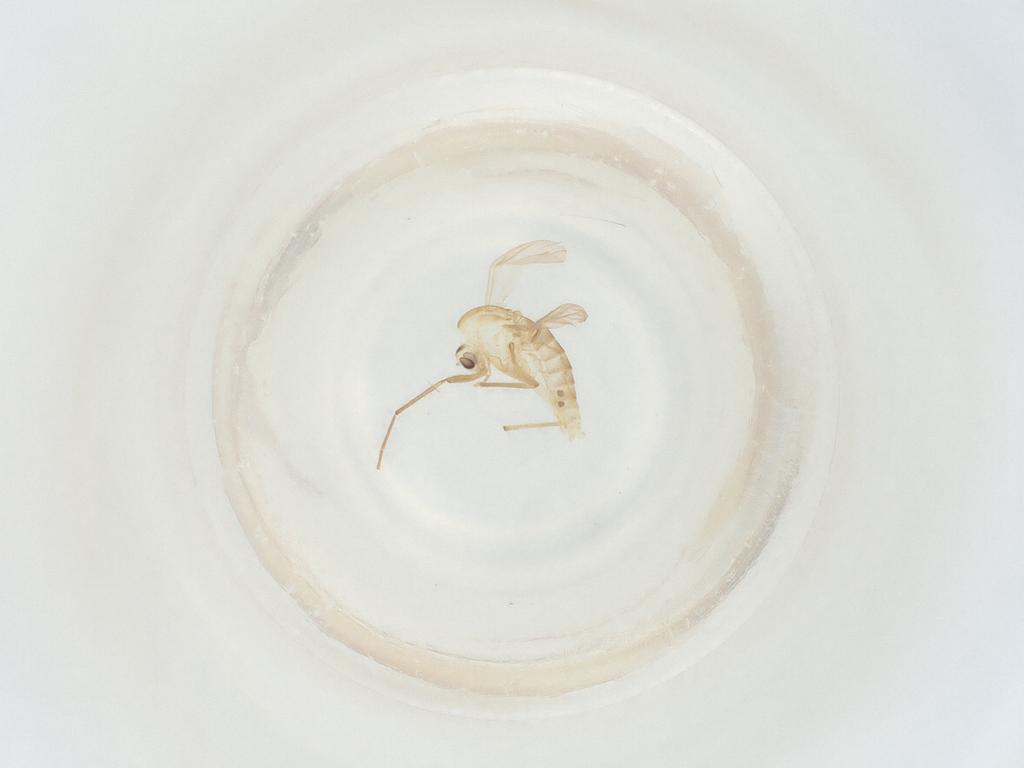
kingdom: Animalia
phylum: Arthropoda
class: Insecta
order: Diptera
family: Chironomidae
